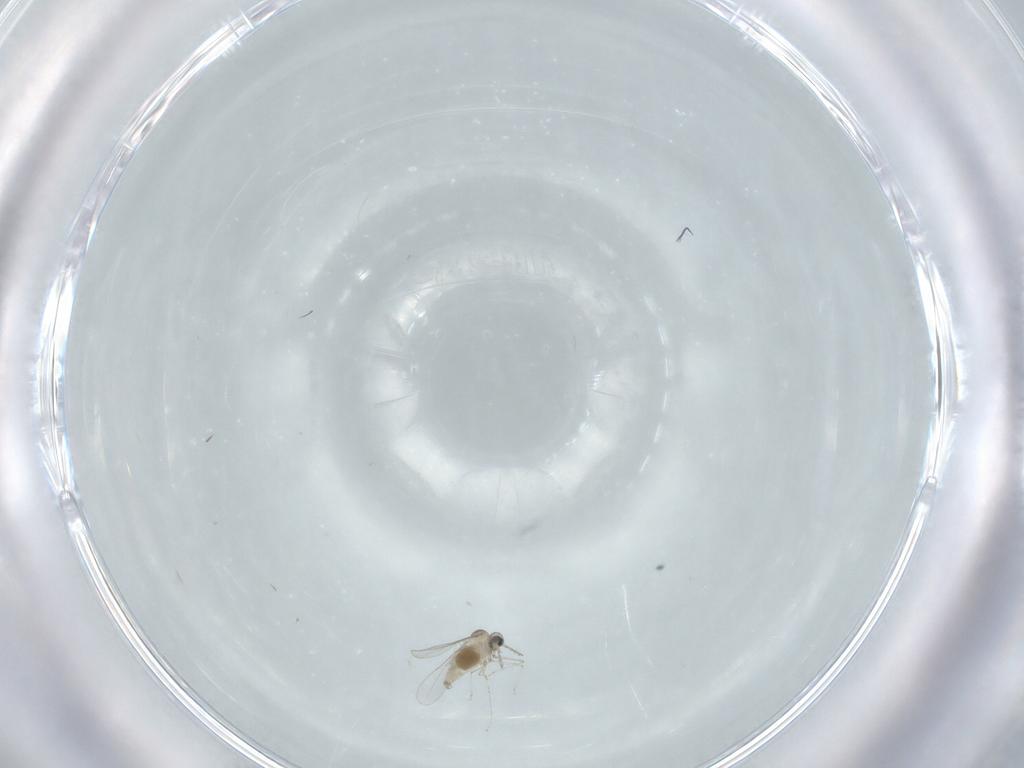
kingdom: Animalia
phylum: Arthropoda
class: Insecta
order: Diptera
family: Cecidomyiidae
